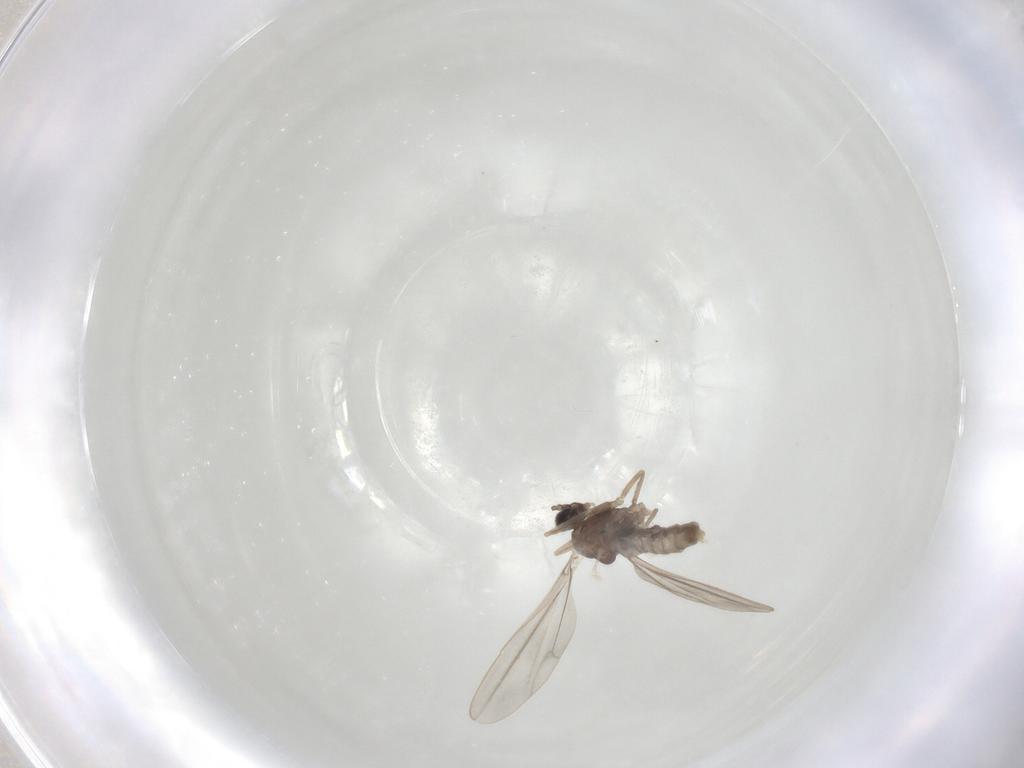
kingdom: Animalia
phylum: Arthropoda
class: Insecta
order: Diptera
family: Cecidomyiidae
